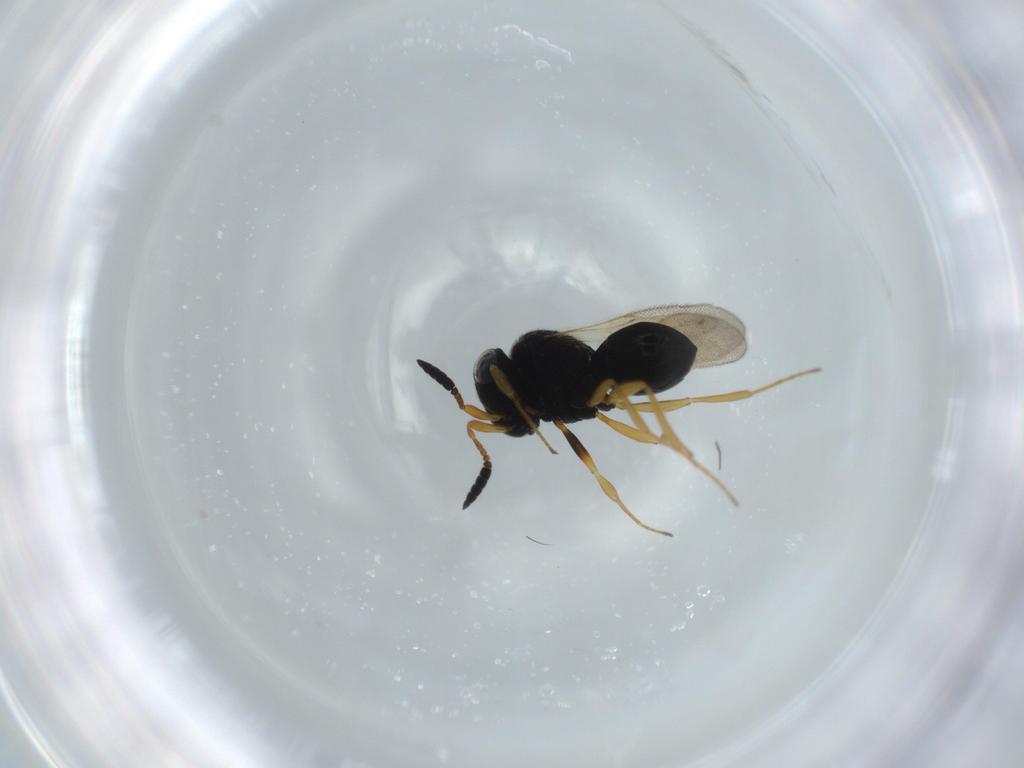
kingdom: Animalia
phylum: Arthropoda
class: Insecta
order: Hymenoptera
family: Scelionidae
